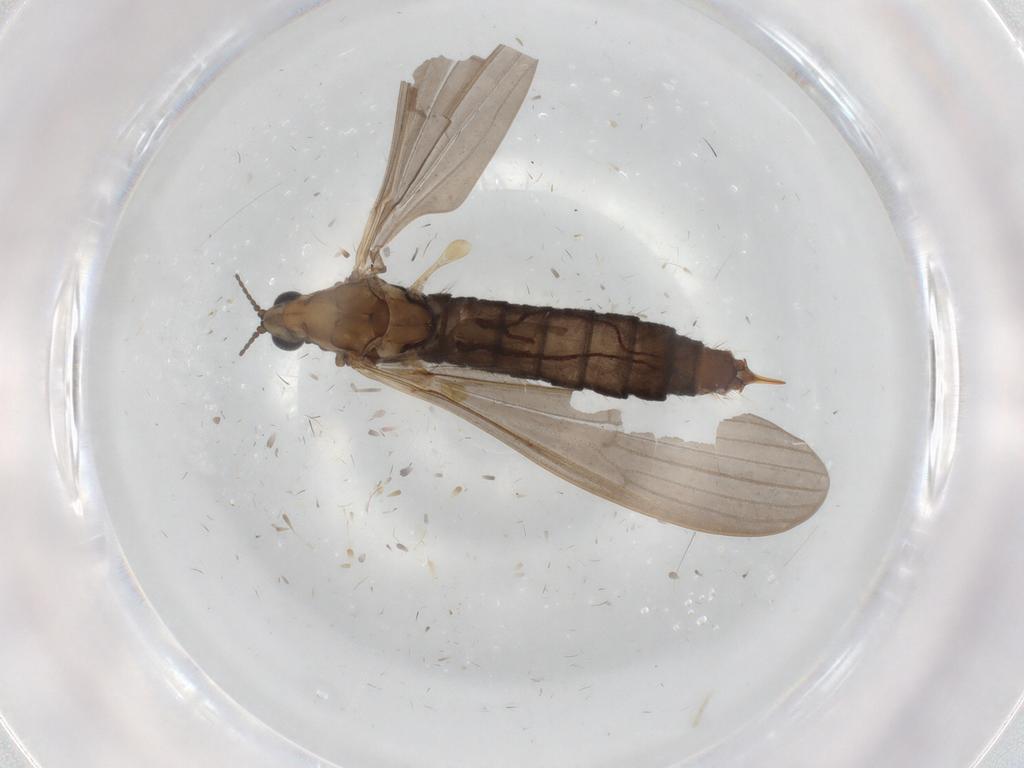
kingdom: Animalia
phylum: Arthropoda
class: Insecta
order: Diptera
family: Limoniidae
